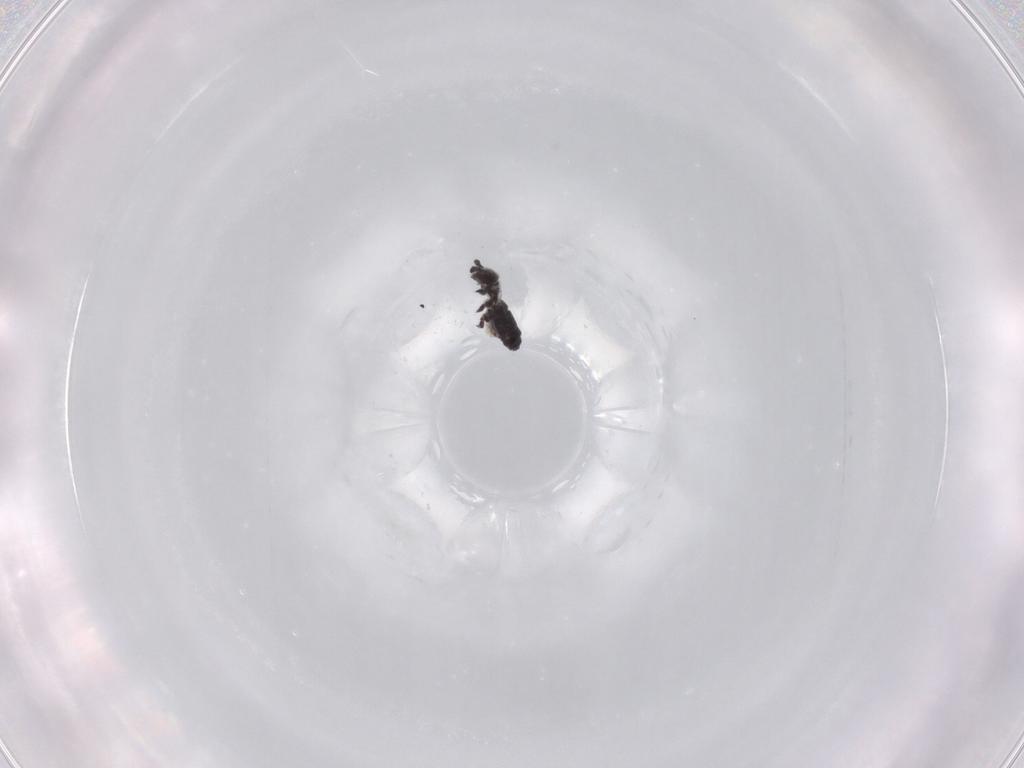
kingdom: Animalia
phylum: Arthropoda
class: Collembola
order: Poduromorpha
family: Hypogastruridae
